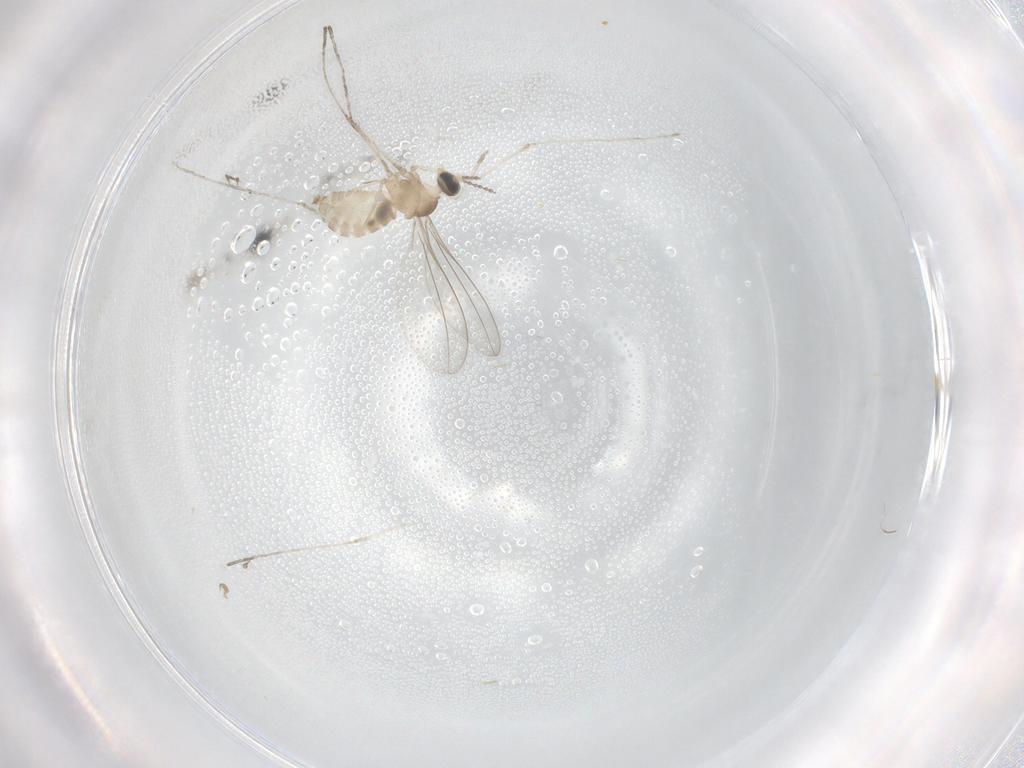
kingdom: Animalia
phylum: Arthropoda
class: Insecta
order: Diptera
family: Cecidomyiidae
